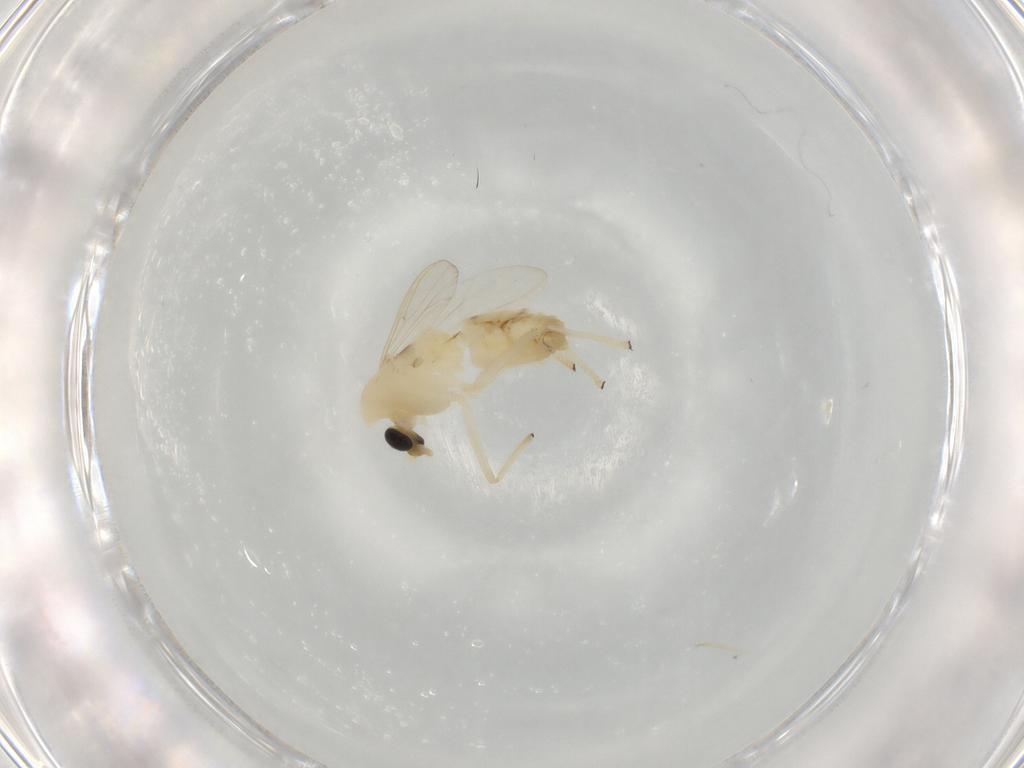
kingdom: Animalia
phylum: Arthropoda
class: Insecta
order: Diptera
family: Chironomidae
